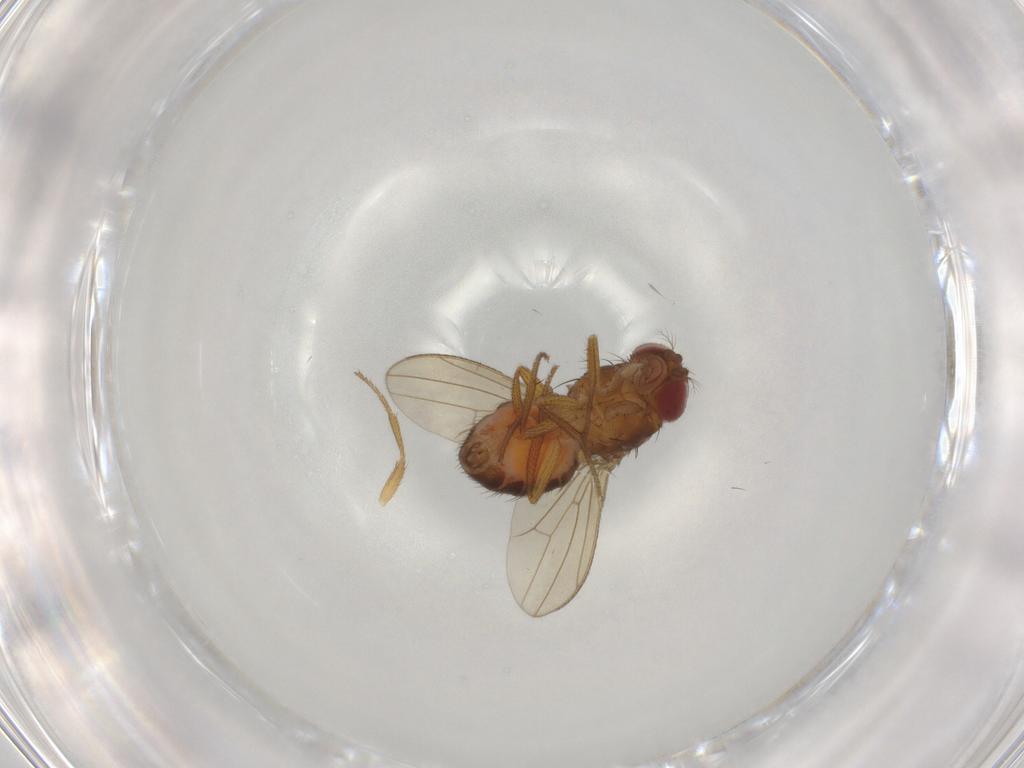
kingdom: Animalia
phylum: Arthropoda
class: Insecta
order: Diptera
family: Drosophilidae
